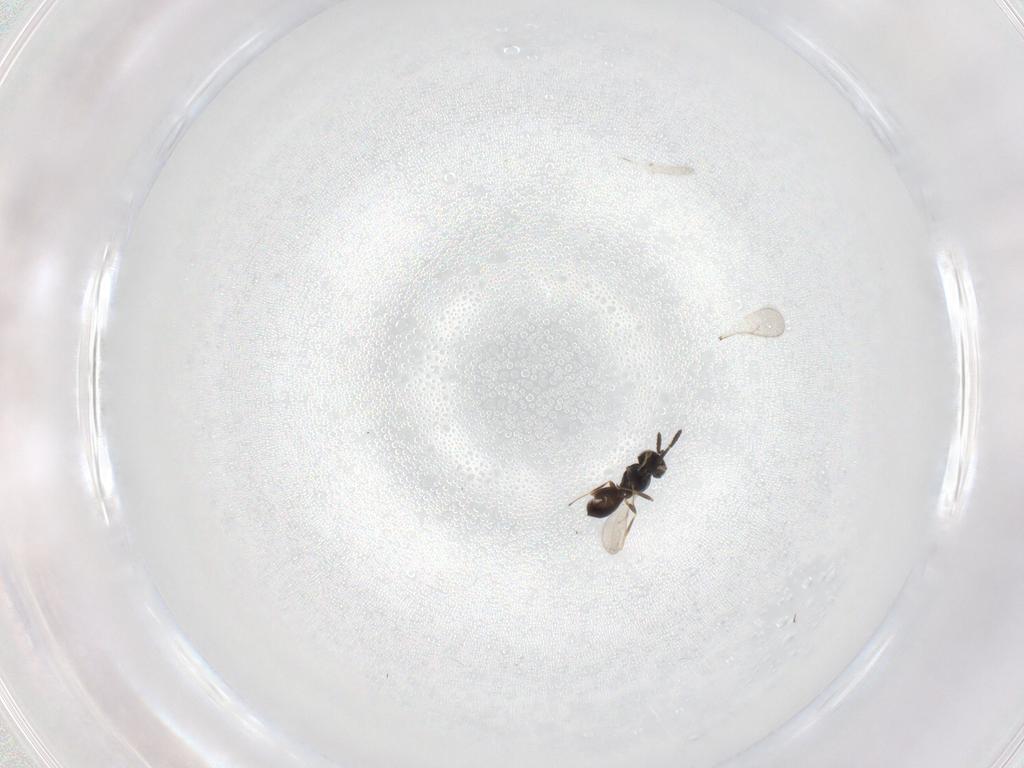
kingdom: Animalia
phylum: Arthropoda
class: Insecta
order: Hymenoptera
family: Scelionidae
